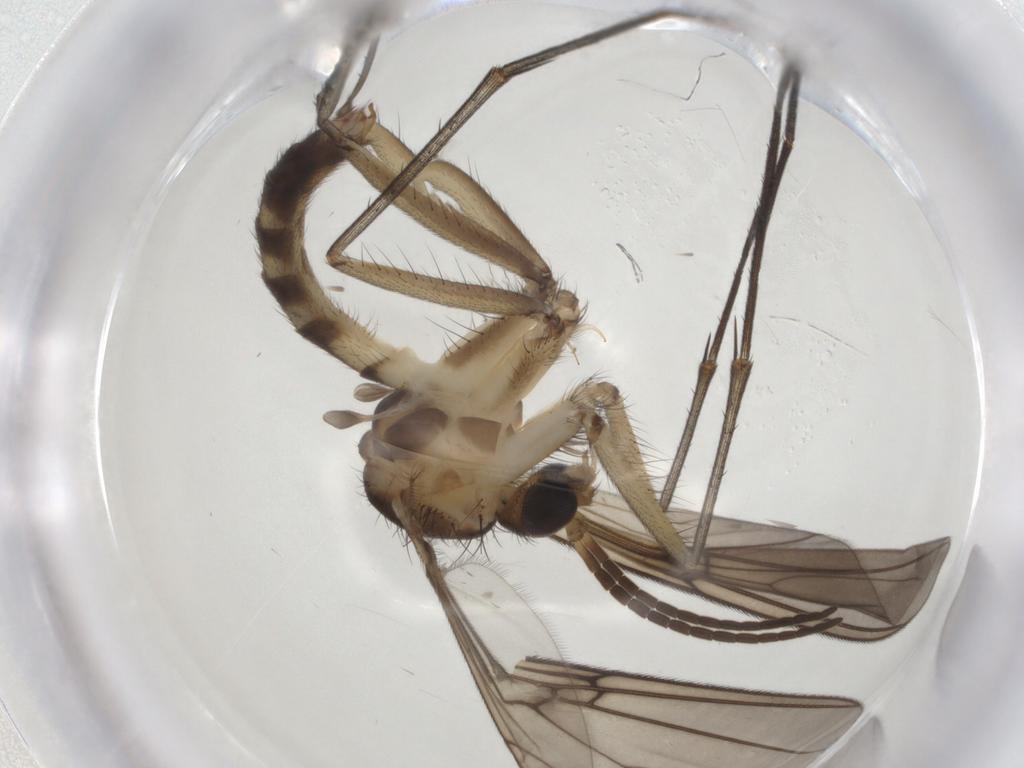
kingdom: Animalia
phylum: Arthropoda
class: Insecta
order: Diptera
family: Mycetophilidae
